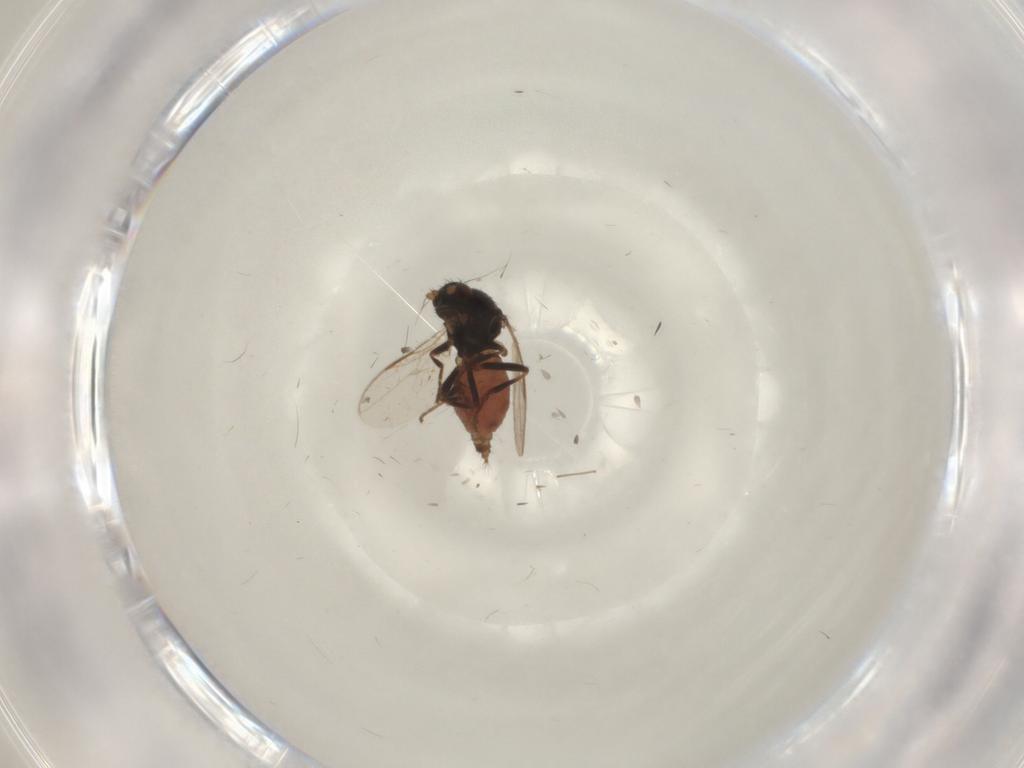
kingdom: Animalia
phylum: Arthropoda
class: Insecta
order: Diptera
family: Sphaeroceridae
